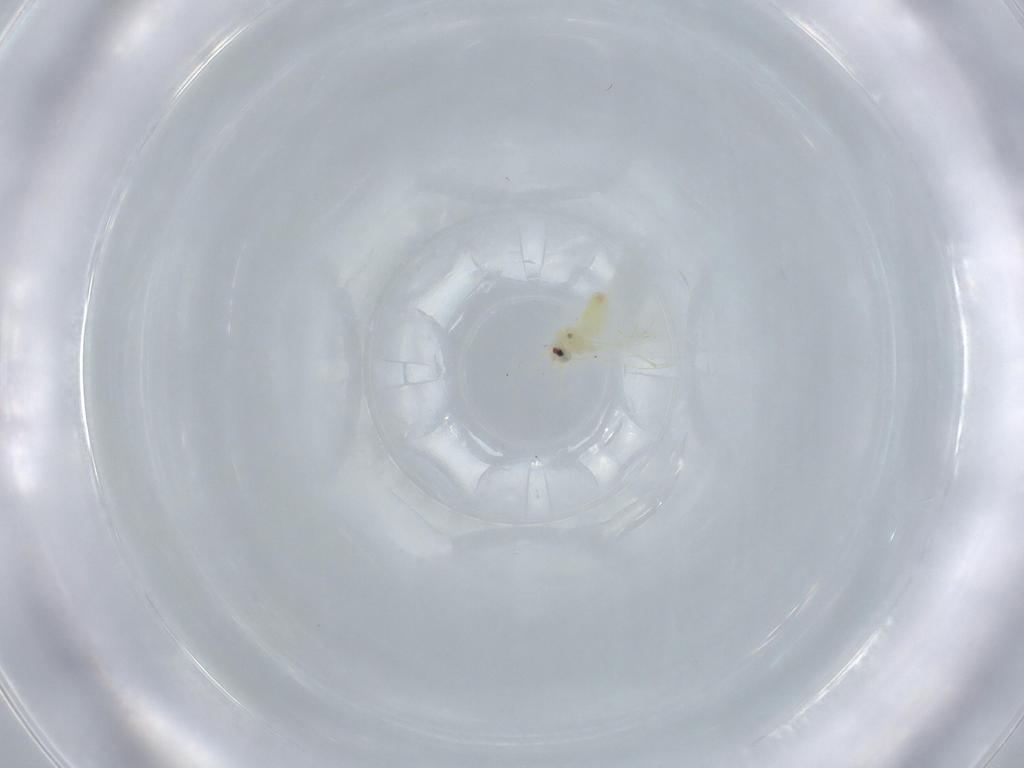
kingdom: Animalia
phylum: Arthropoda
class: Insecta
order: Hemiptera
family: Aleyrodidae
